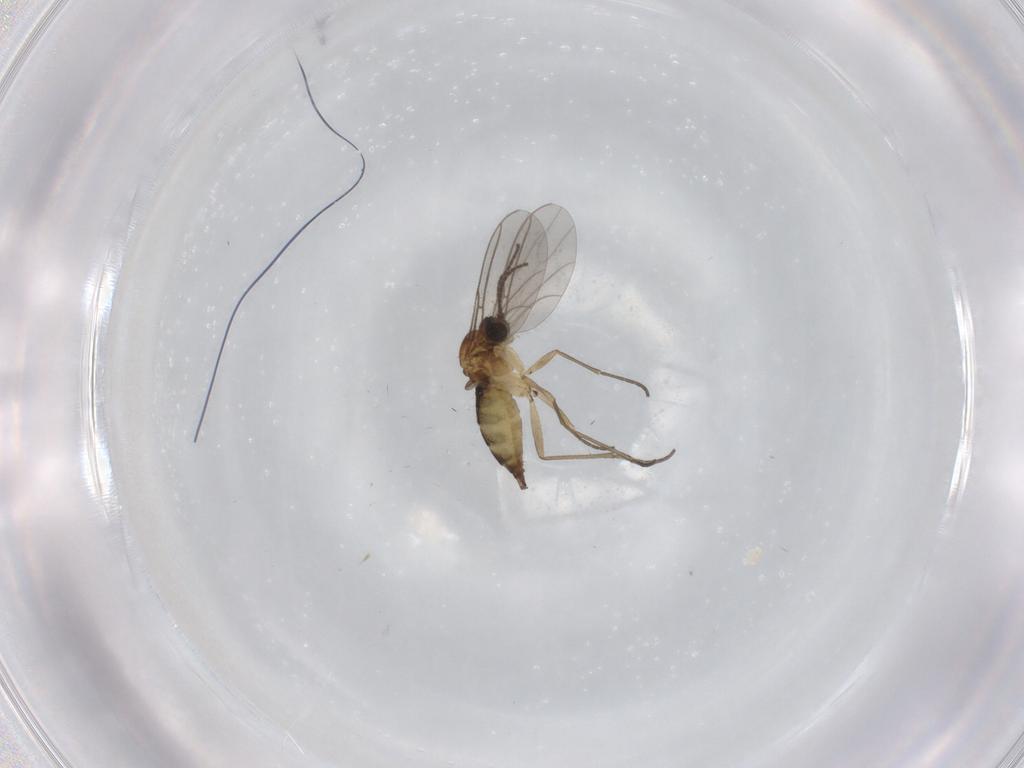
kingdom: Animalia
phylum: Arthropoda
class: Insecta
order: Diptera
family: Sciaridae
